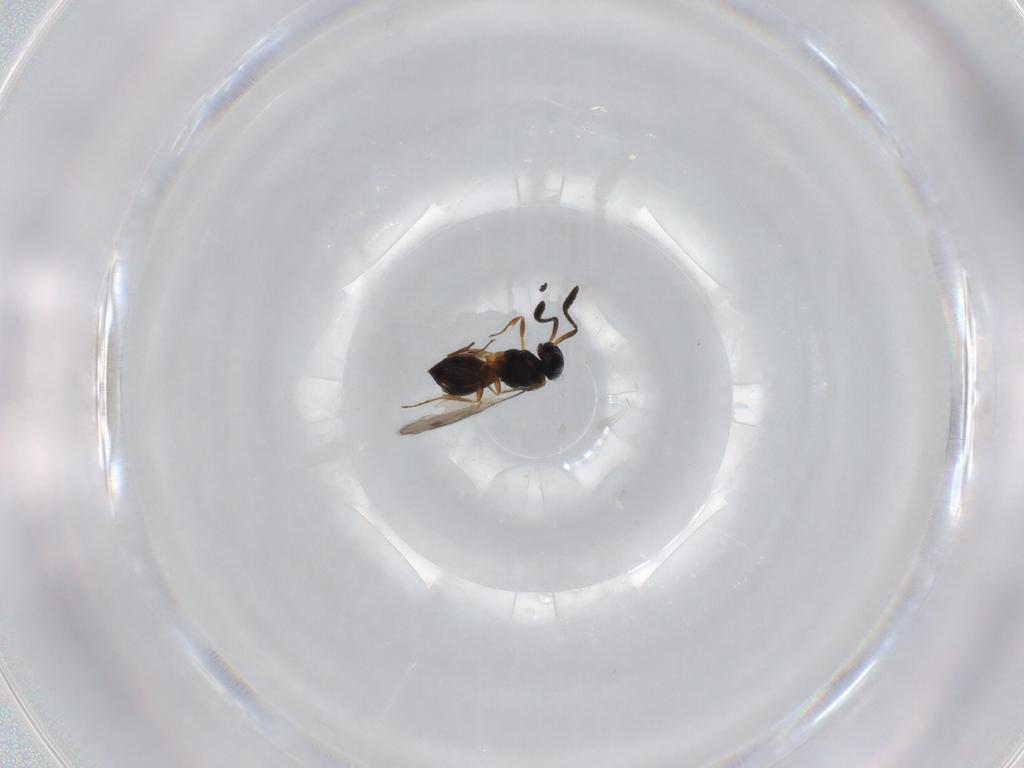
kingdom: Animalia
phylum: Arthropoda
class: Insecta
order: Hymenoptera
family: Scelionidae
